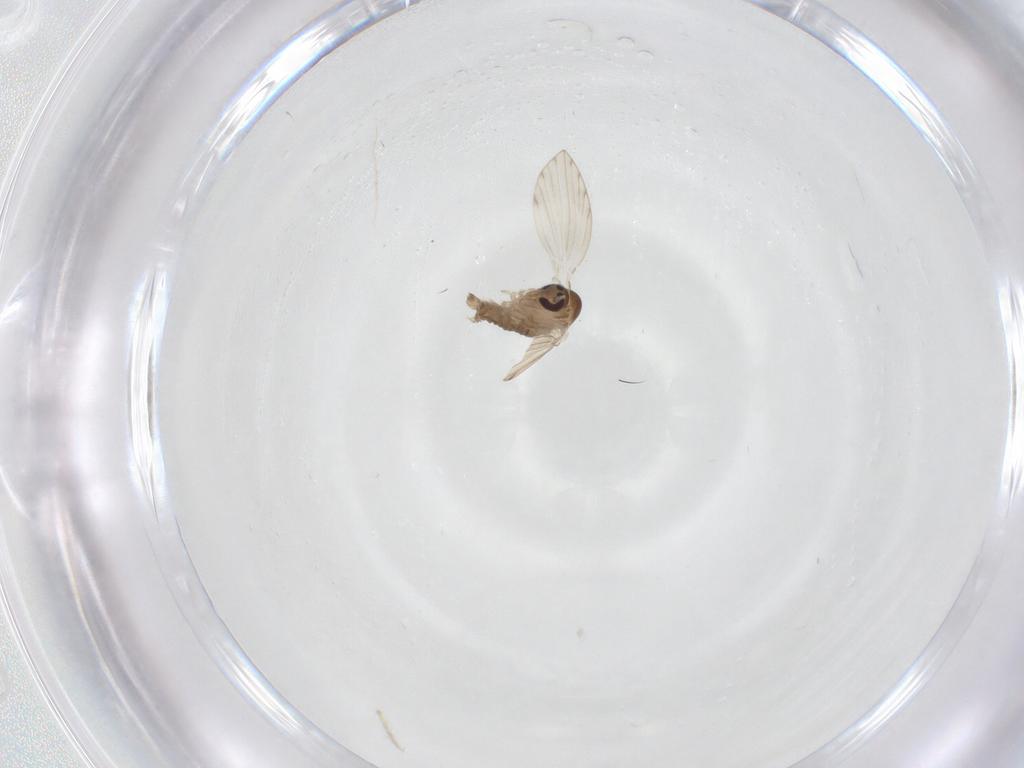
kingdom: Animalia
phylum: Arthropoda
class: Insecta
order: Diptera
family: Psychodidae
